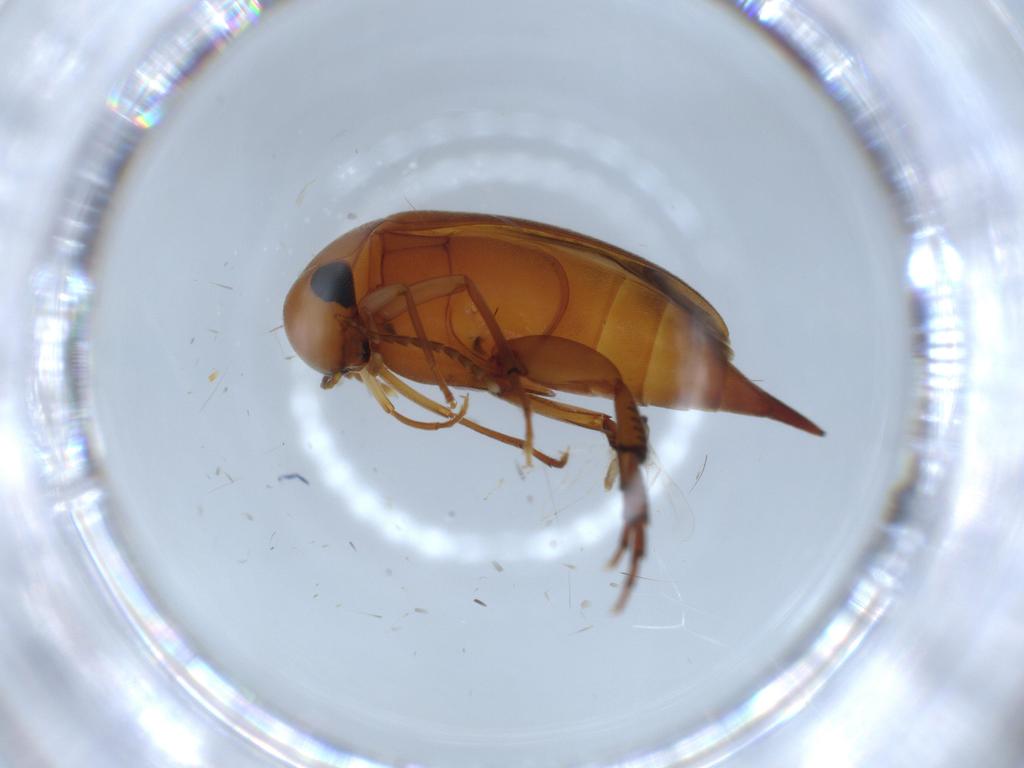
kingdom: Animalia
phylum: Arthropoda
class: Insecta
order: Coleoptera
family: Mordellidae
